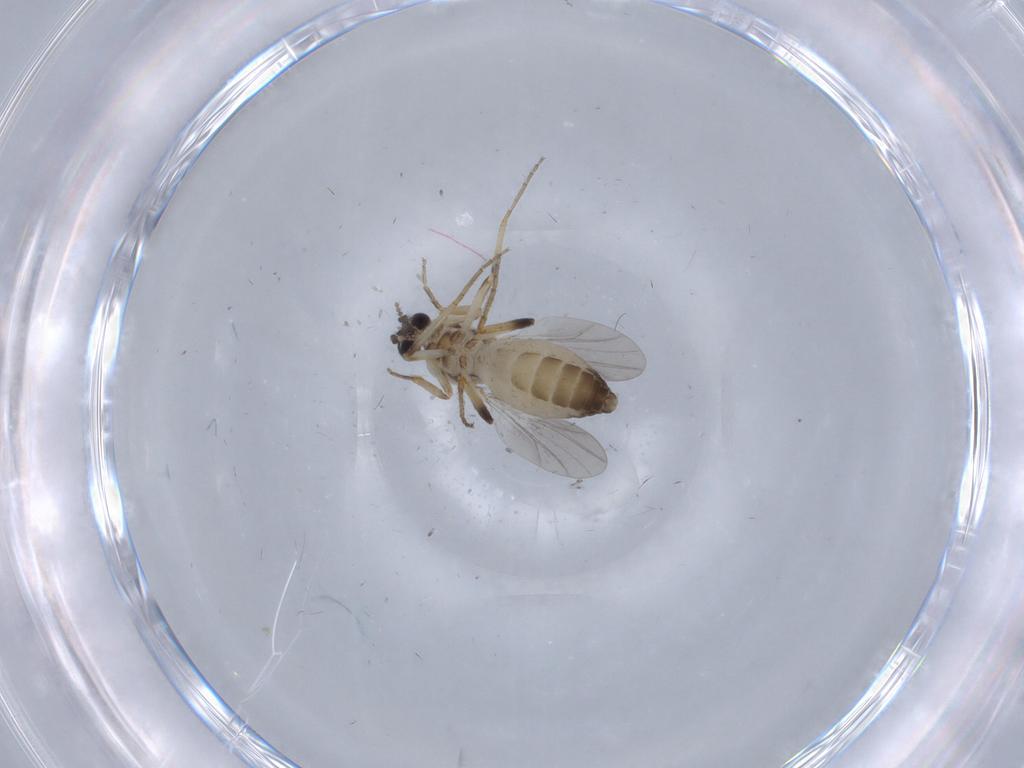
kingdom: Animalia
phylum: Arthropoda
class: Insecta
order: Diptera
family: Ceratopogonidae
